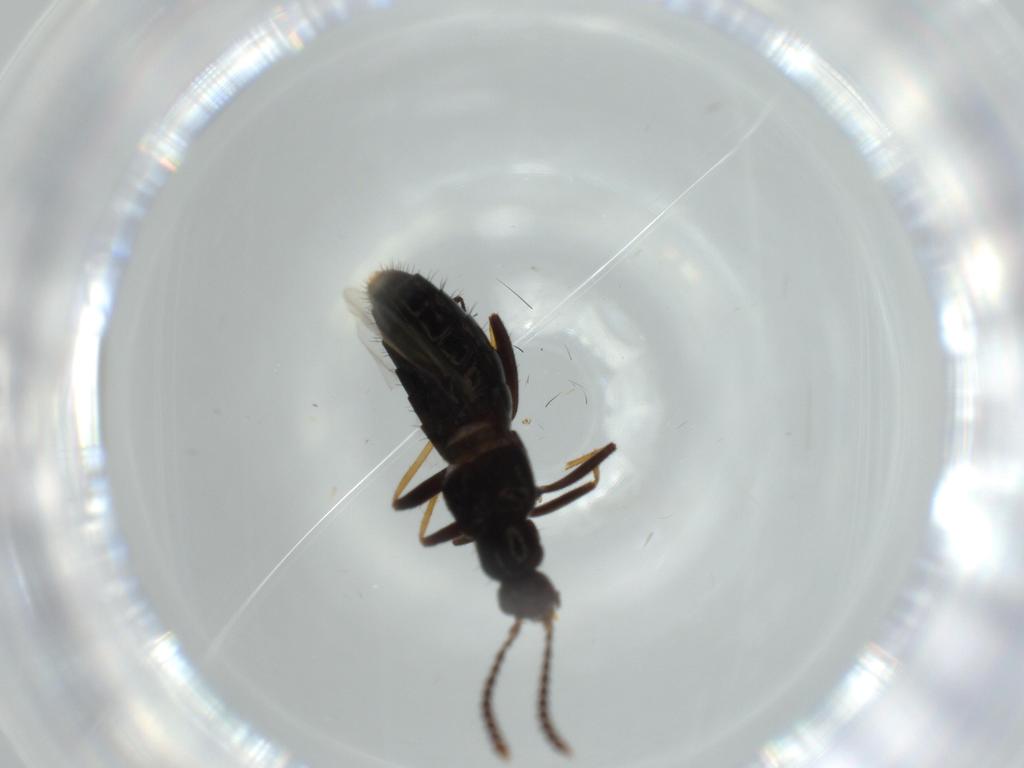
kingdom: Animalia
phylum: Arthropoda
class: Insecta
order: Coleoptera
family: Staphylinidae
